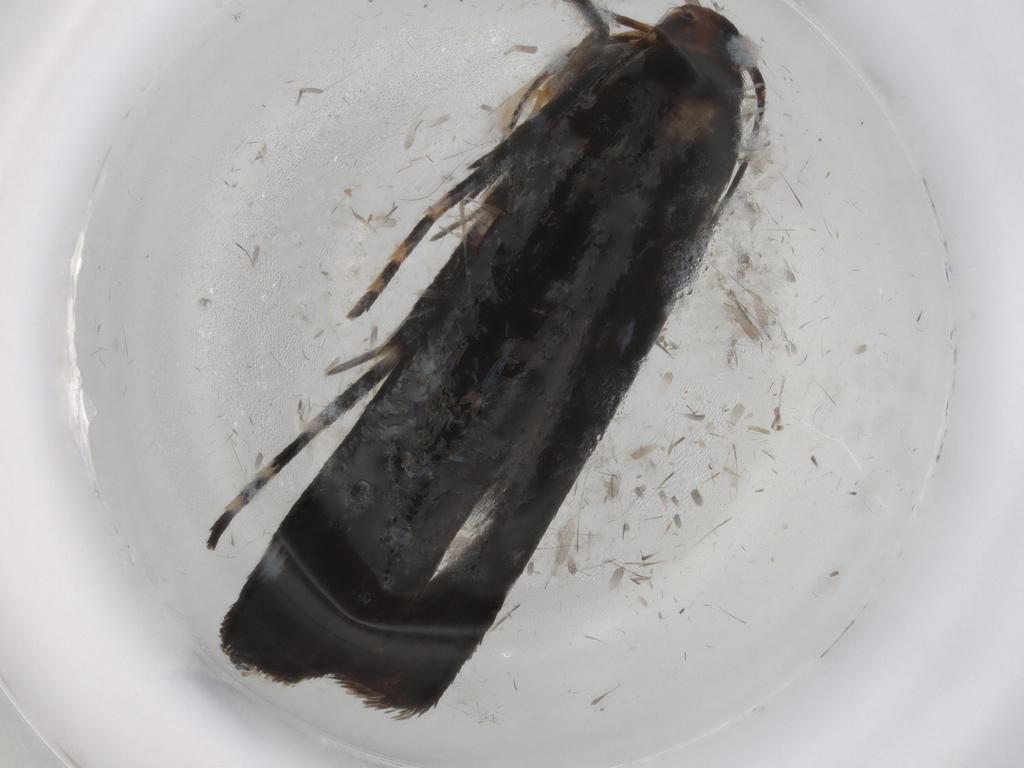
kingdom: Animalia
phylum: Arthropoda
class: Insecta
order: Lepidoptera
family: Gelechiidae
